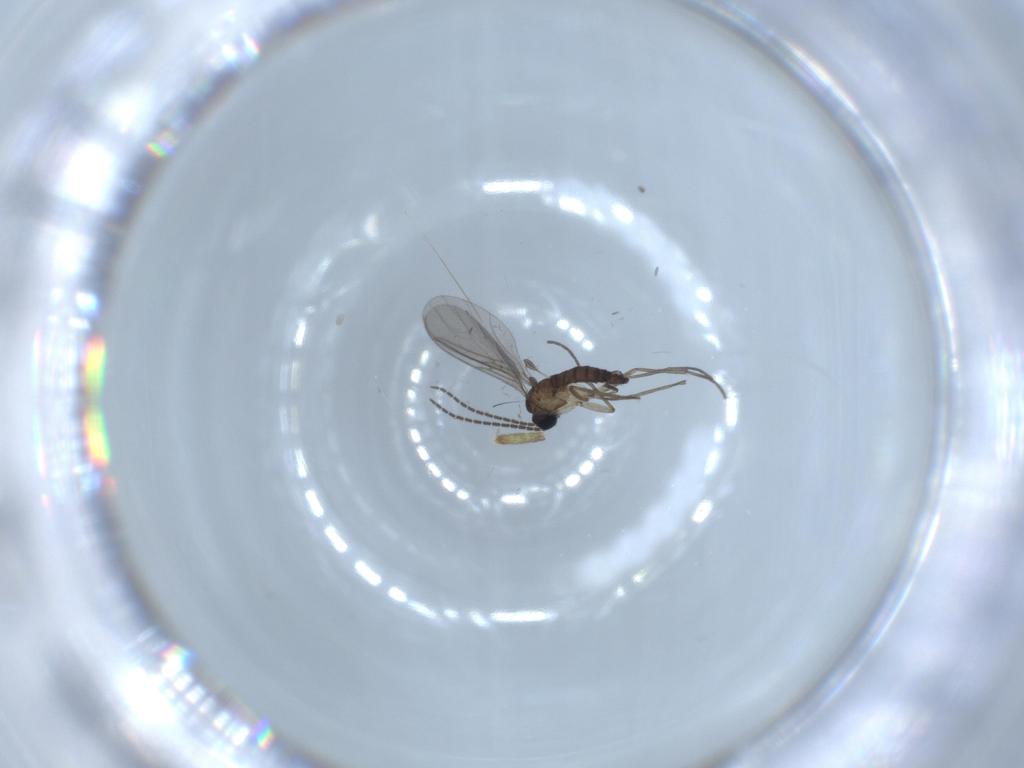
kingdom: Animalia
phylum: Arthropoda
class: Insecta
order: Diptera
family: Sciaridae
